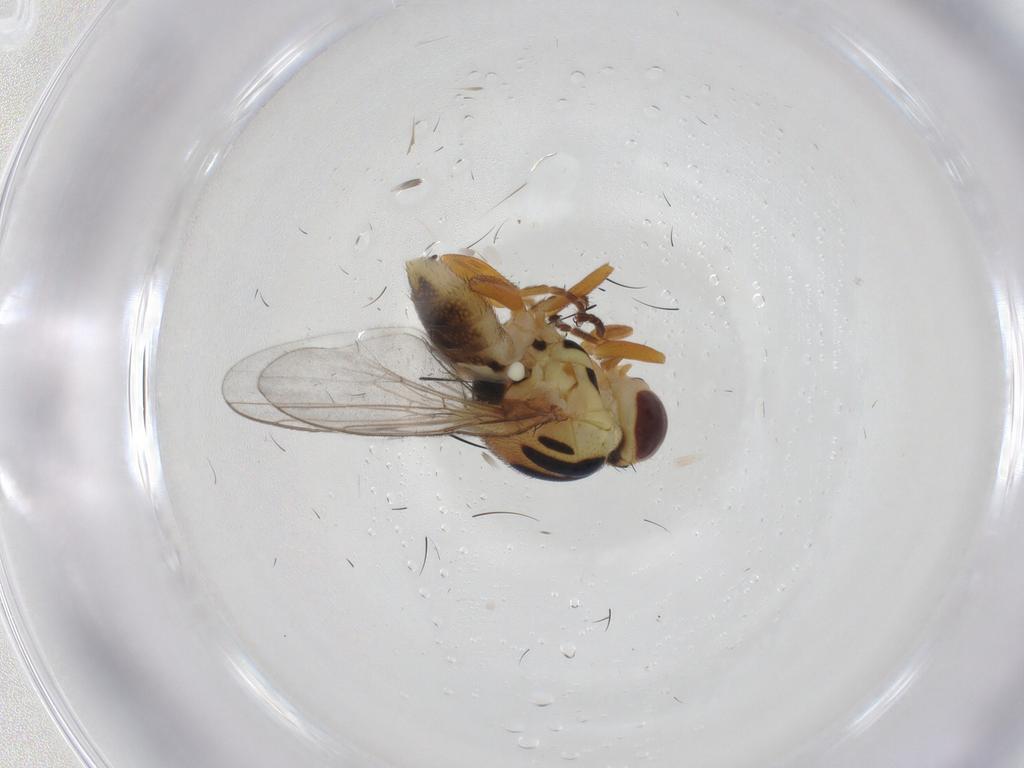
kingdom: Animalia
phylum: Arthropoda
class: Insecta
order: Diptera
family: Chloropidae
